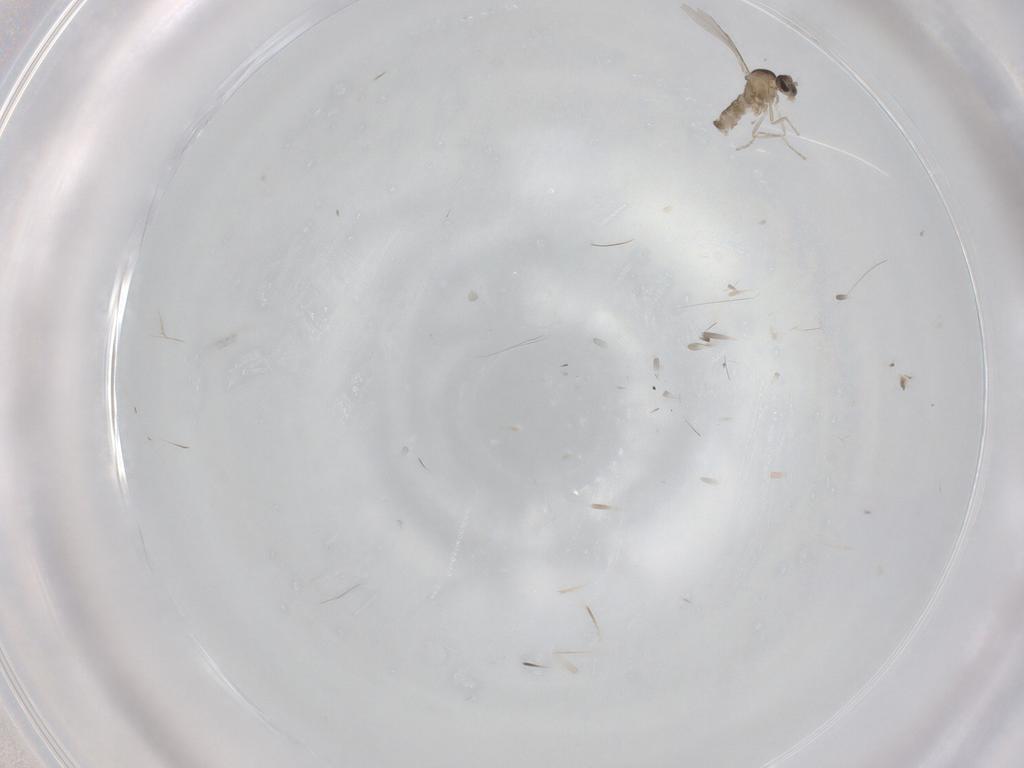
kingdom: Animalia
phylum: Arthropoda
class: Insecta
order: Diptera
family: Cecidomyiidae
